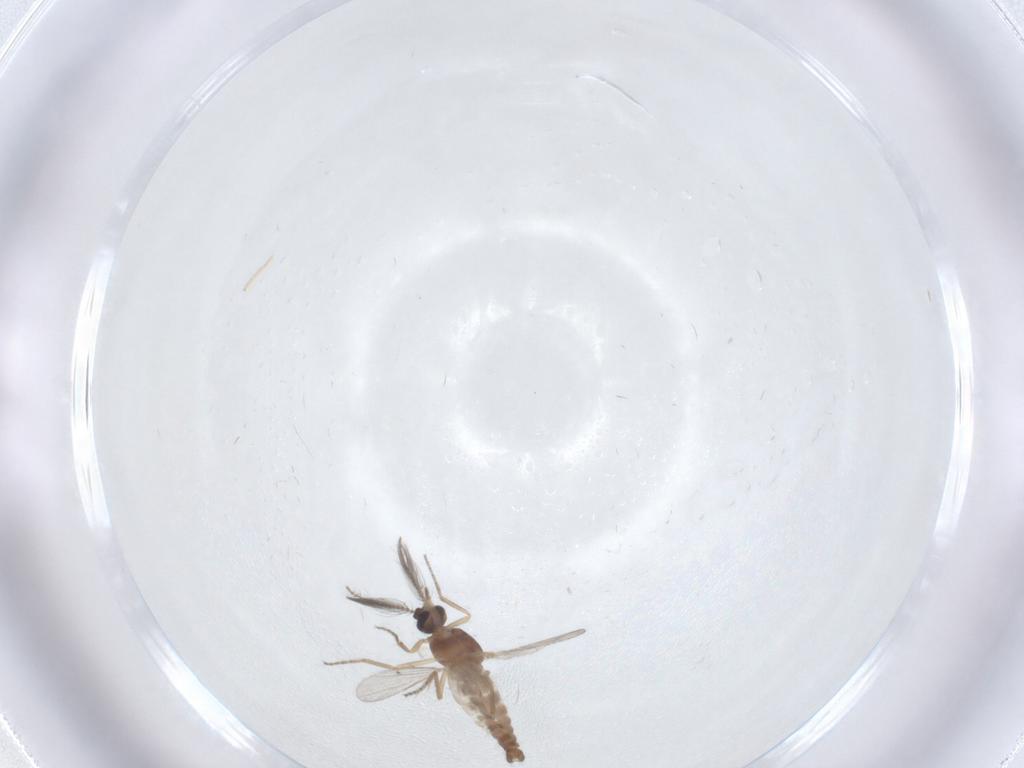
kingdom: Animalia
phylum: Arthropoda
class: Insecta
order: Diptera
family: Ceratopogonidae
